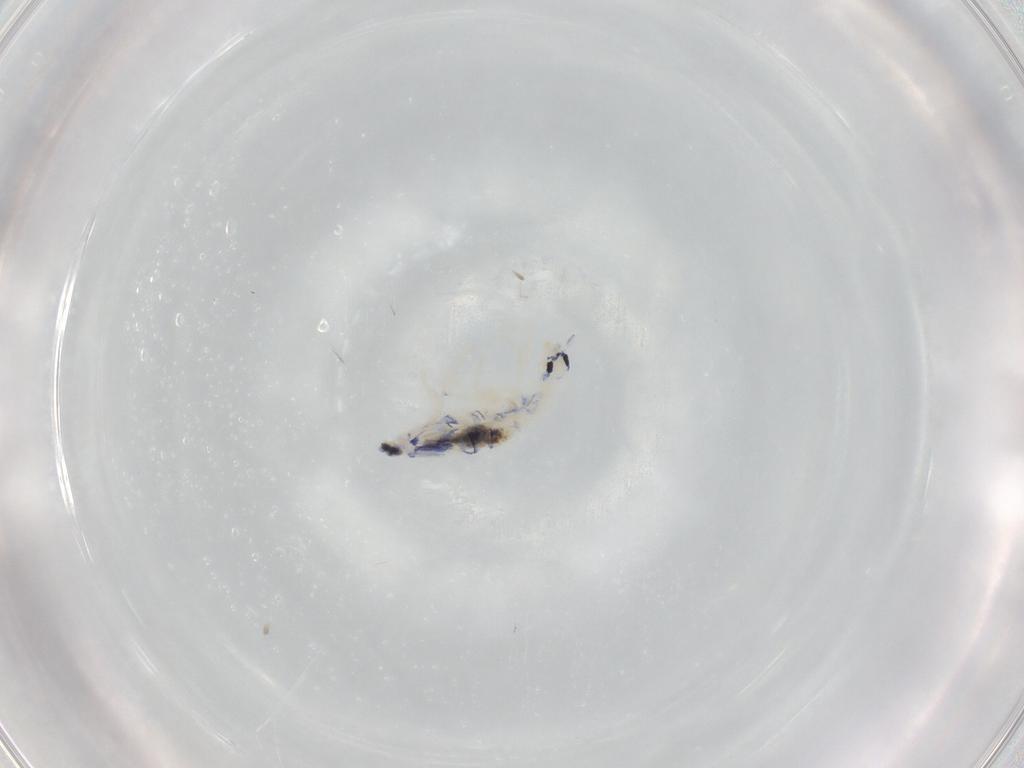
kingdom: Animalia
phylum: Arthropoda
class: Collembola
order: Entomobryomorpha
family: Entomobryidae
